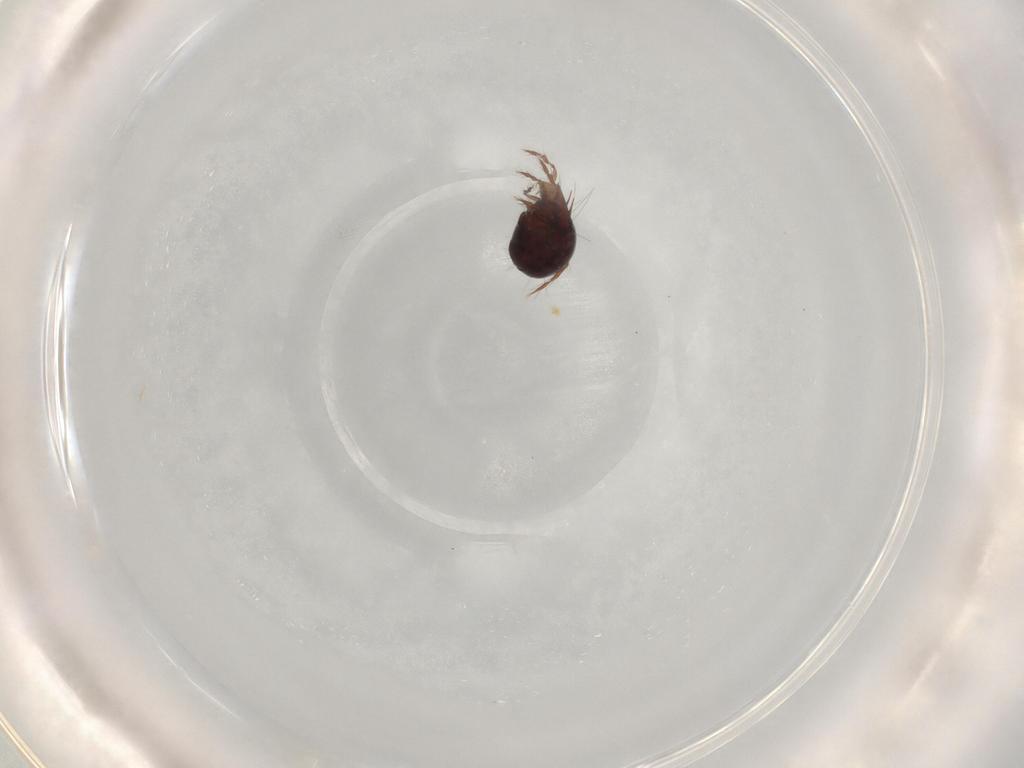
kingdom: Animalia
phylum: Arthropoda
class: Arachnida
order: Sarcoptiformes
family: Ceratoppiidae
